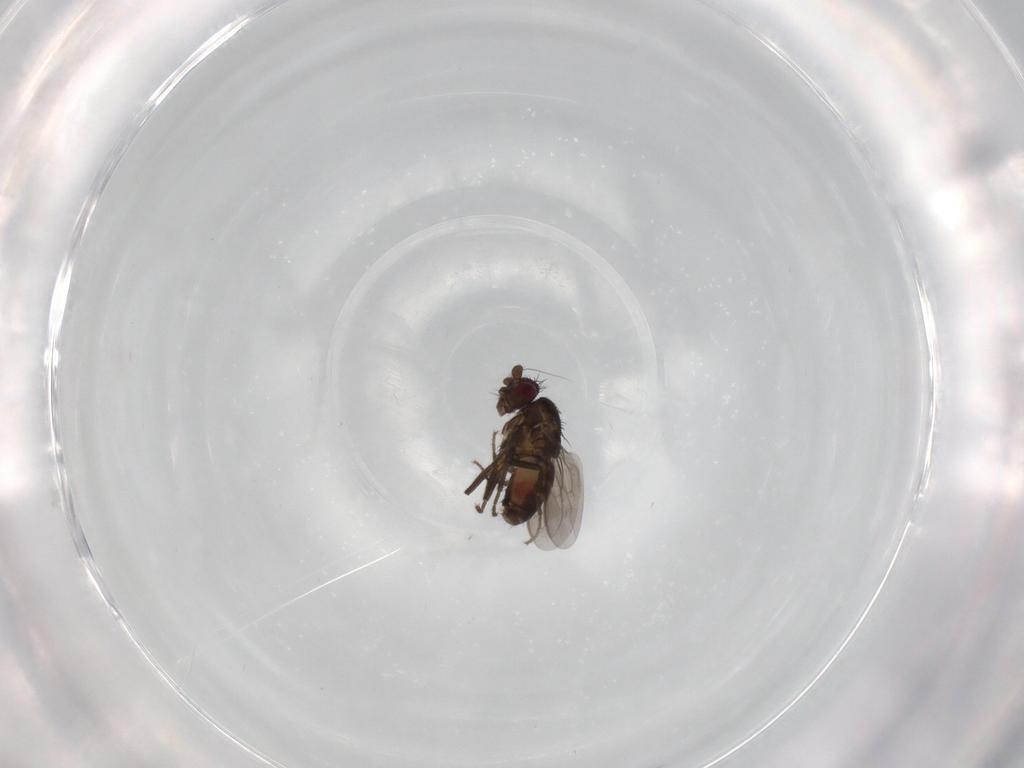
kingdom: Animalia
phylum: Arthropoda
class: Insecta
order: Diptera
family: Sphaeroceridae
